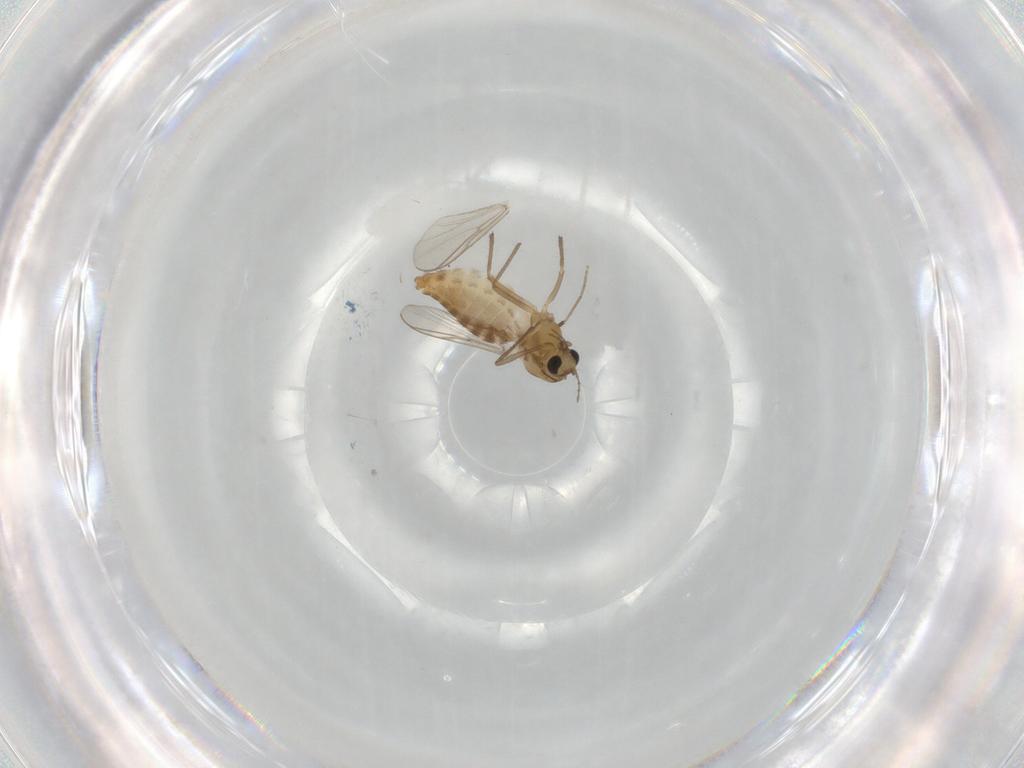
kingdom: Animalia
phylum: Arthropoda
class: Insecta
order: Diptera
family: Chironomidae
